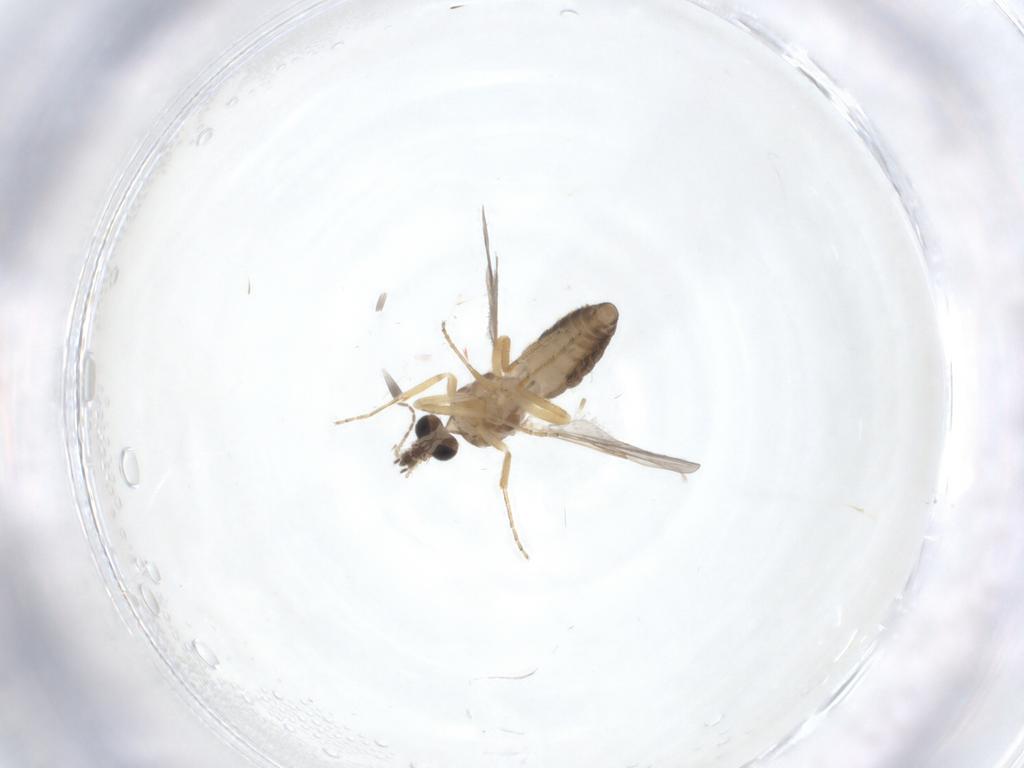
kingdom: Animalia
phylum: Arthropoda
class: Insecta
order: Diptera
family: Ceratopogonidae
